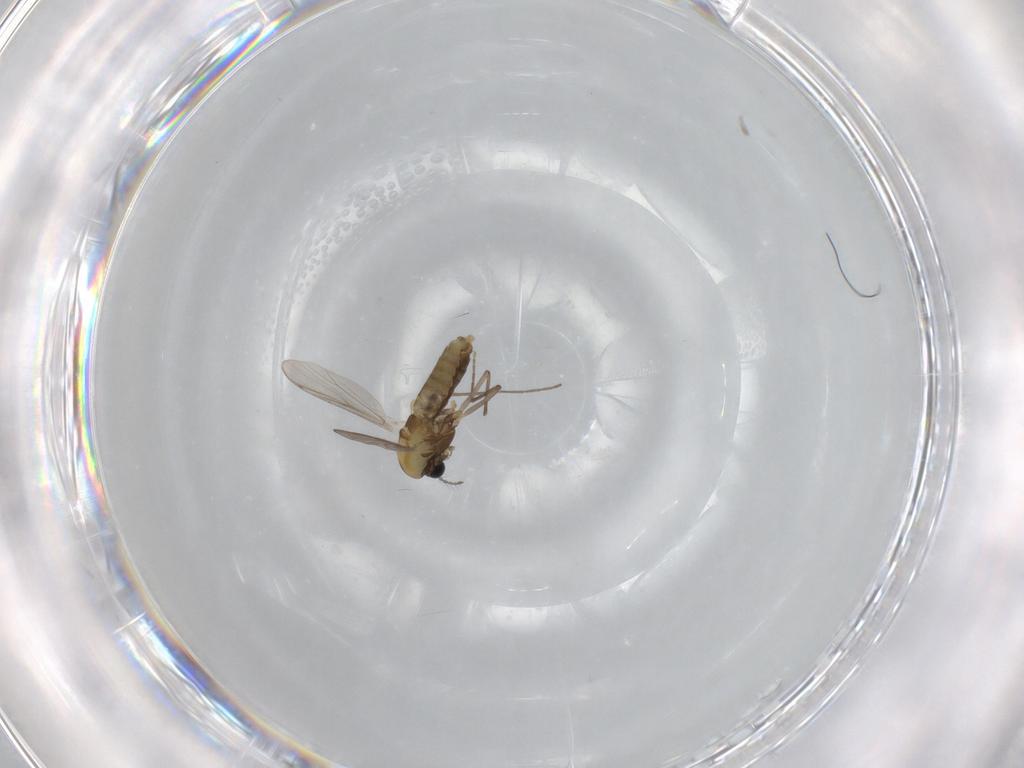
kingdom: Animalia
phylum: Arthropoda
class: Insecta
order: Diptera
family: Chironomidae
